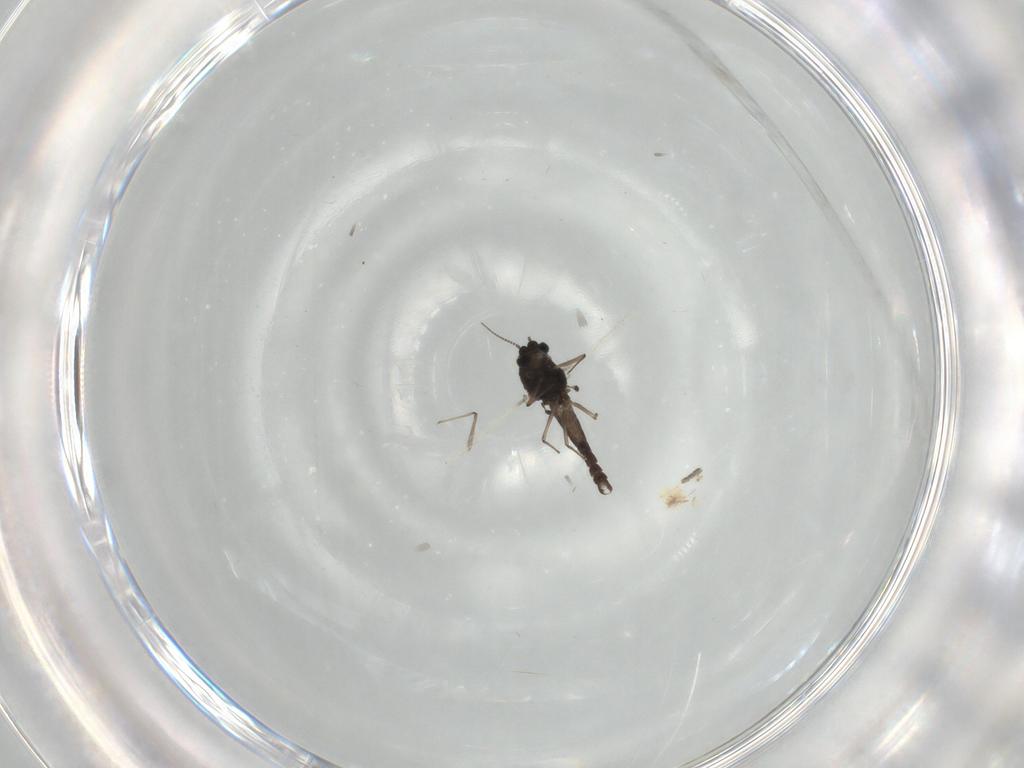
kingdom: Animalia
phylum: Arthropoda
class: Insecta
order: Diptera
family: Chironomidae
